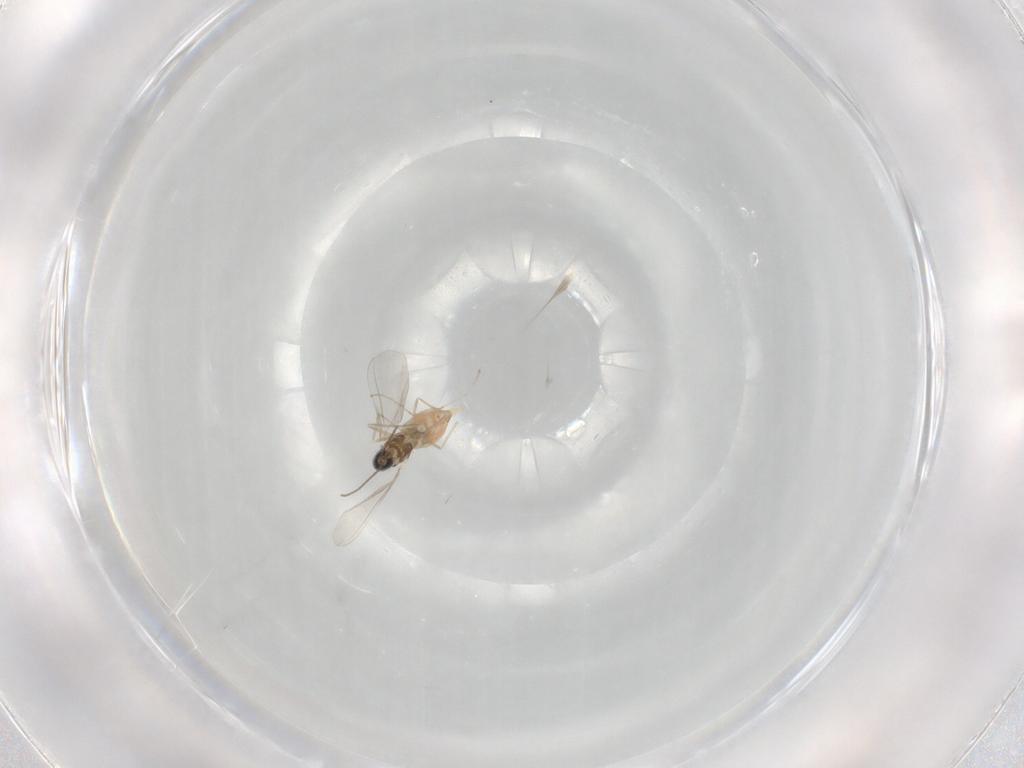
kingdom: Animalia
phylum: Arthropoda
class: Insecta
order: Diptera
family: Cecidomyiidae
